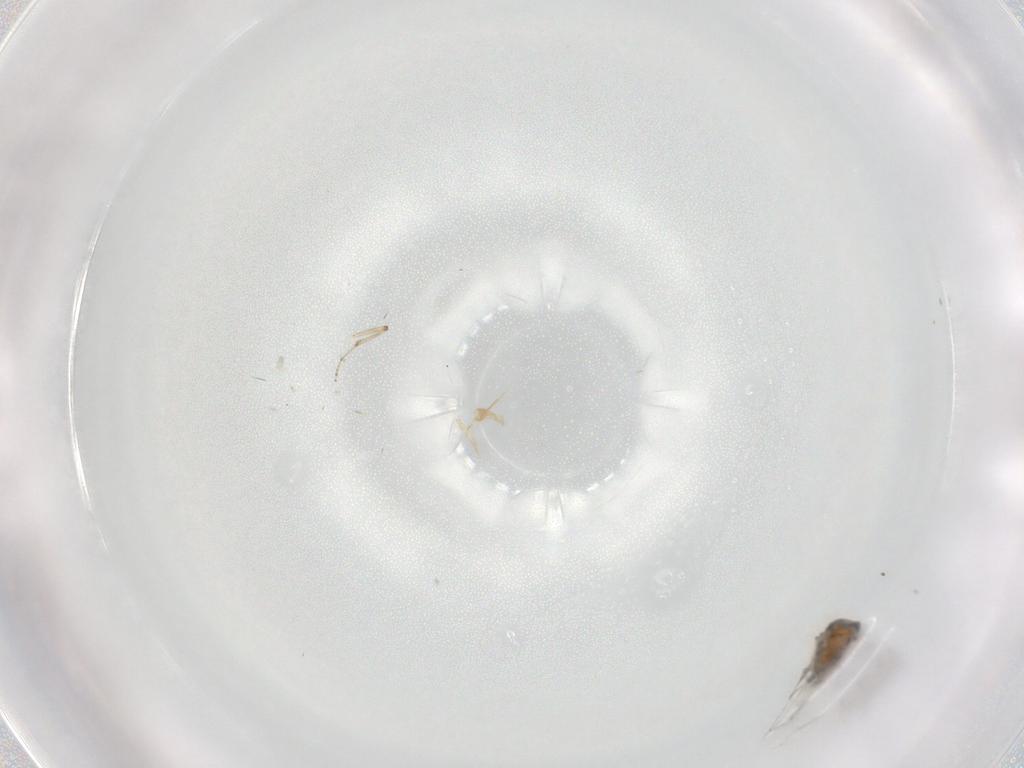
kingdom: Animalia
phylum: Arthropoda
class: Insecta
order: Diptera
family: Ceratopogonidae
